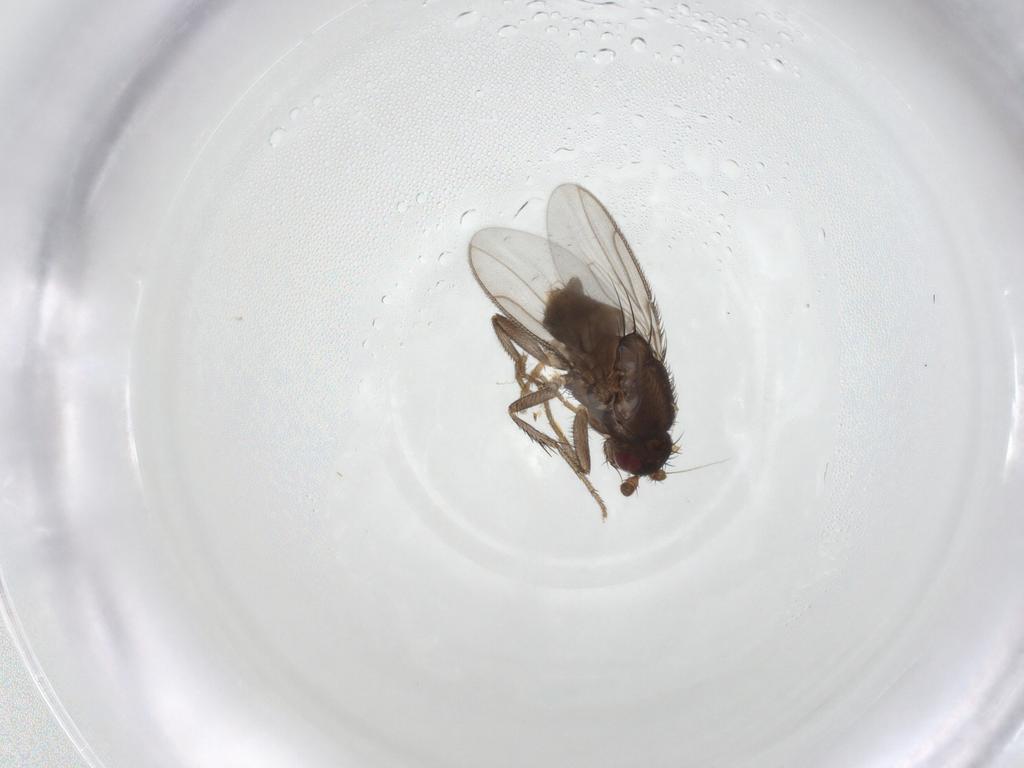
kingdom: Animalia
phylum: Arthropoda
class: Insecta
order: Diptera
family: Sphaeroceridae
